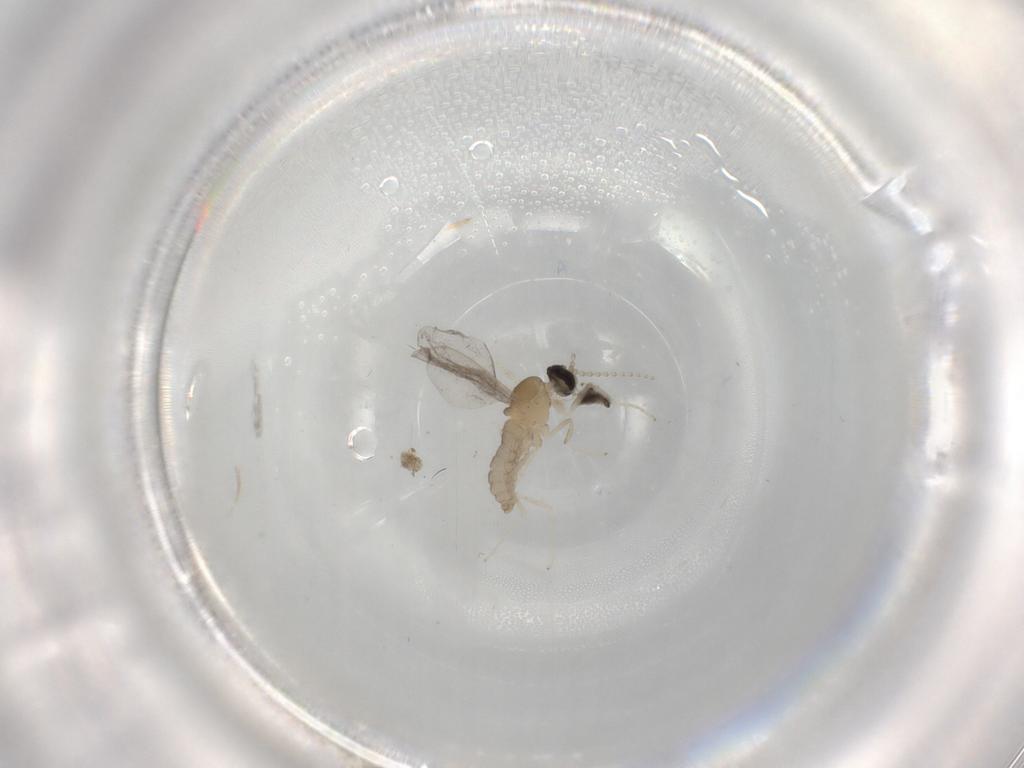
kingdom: Animalia
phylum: Arthropoda
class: Insecta
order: Diptera
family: Cecidomyiidae
